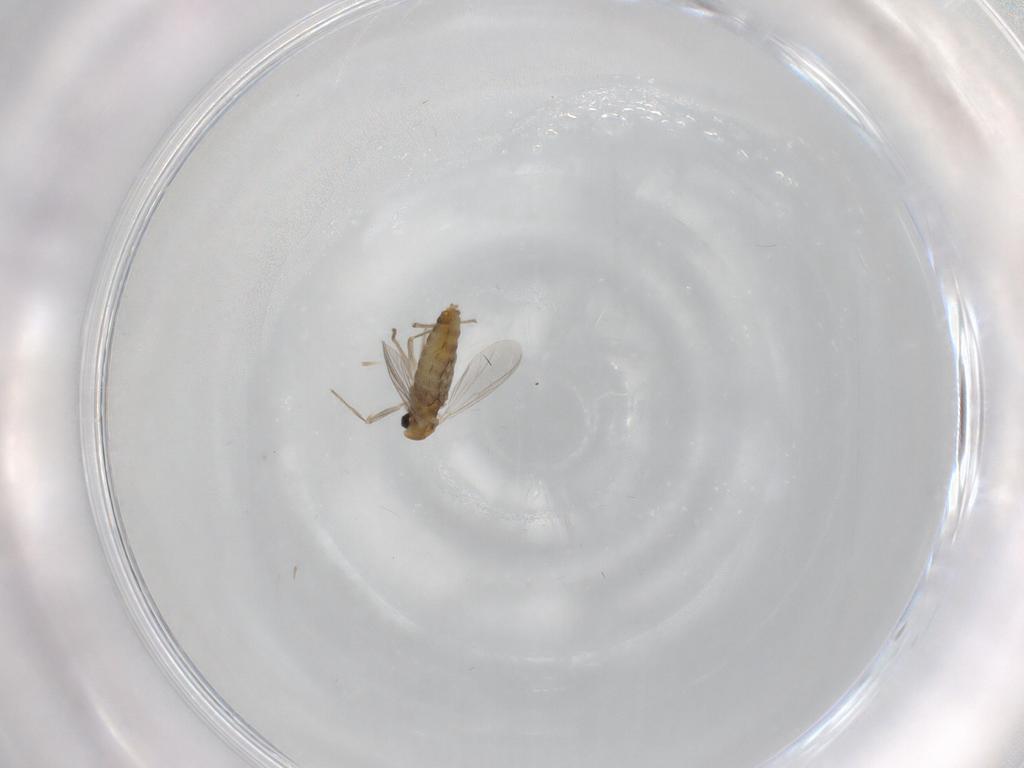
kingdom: Animalia
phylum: Arthropoda
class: Insecta
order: Diptera
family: Chironomidae
